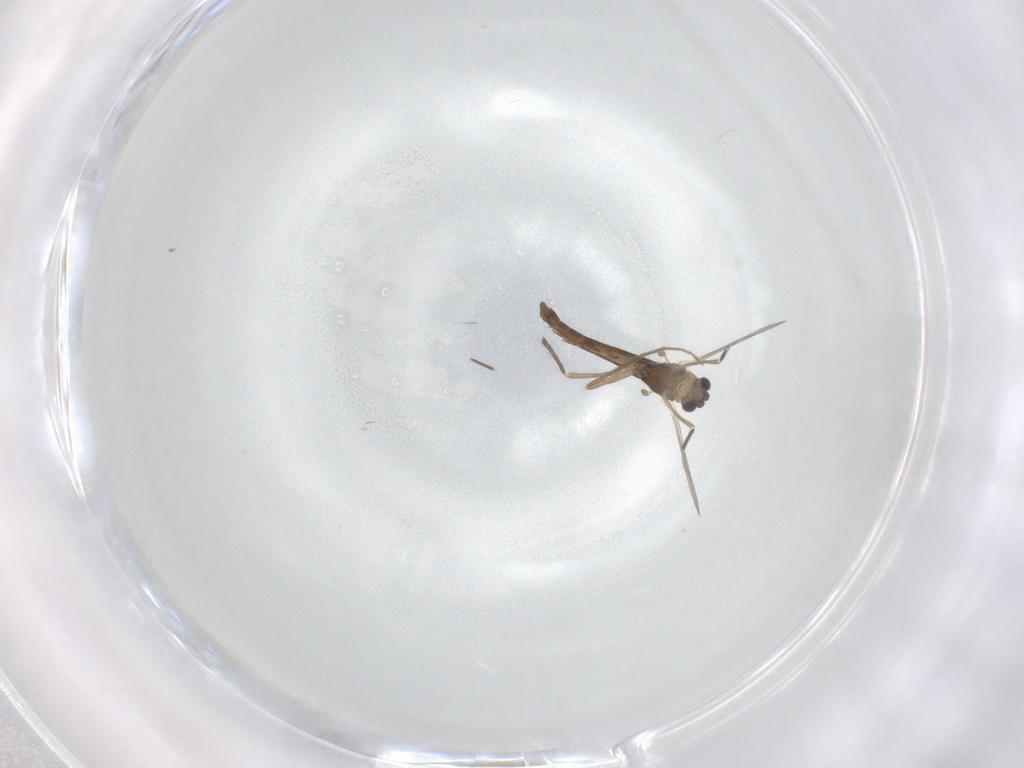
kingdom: Animalia
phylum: Arthropoda
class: Insecta
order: Diptera
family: Chironomidae
